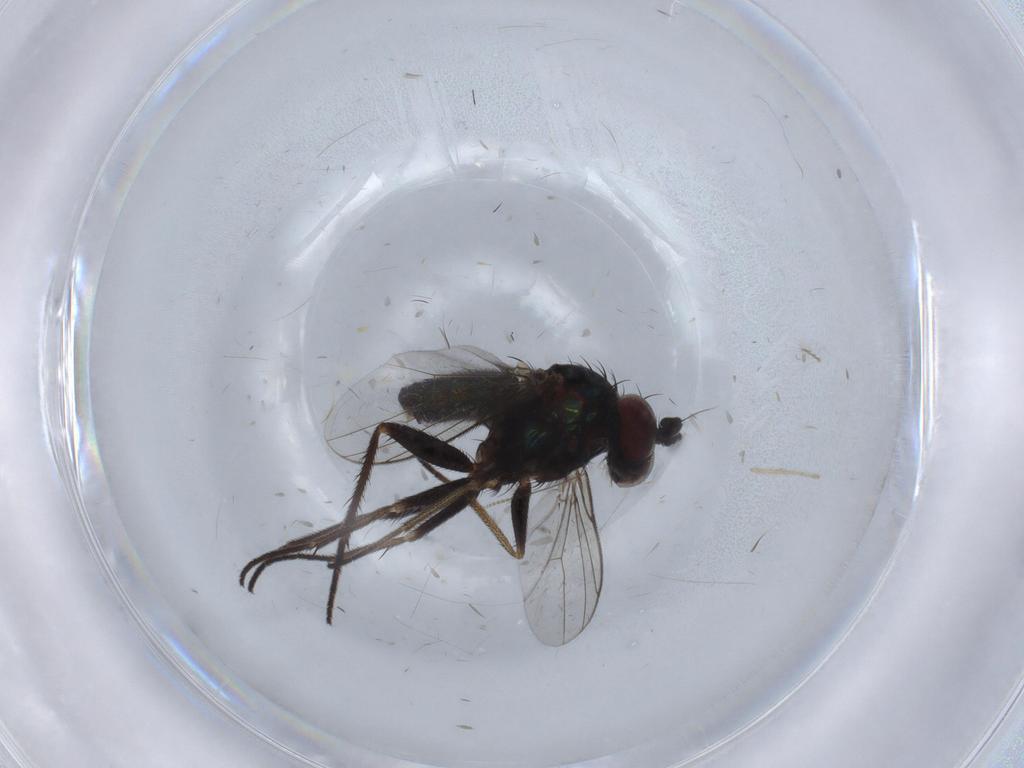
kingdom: Animalia
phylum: Arthropoda
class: Insecta
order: Diptera
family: Dolichopodidae
